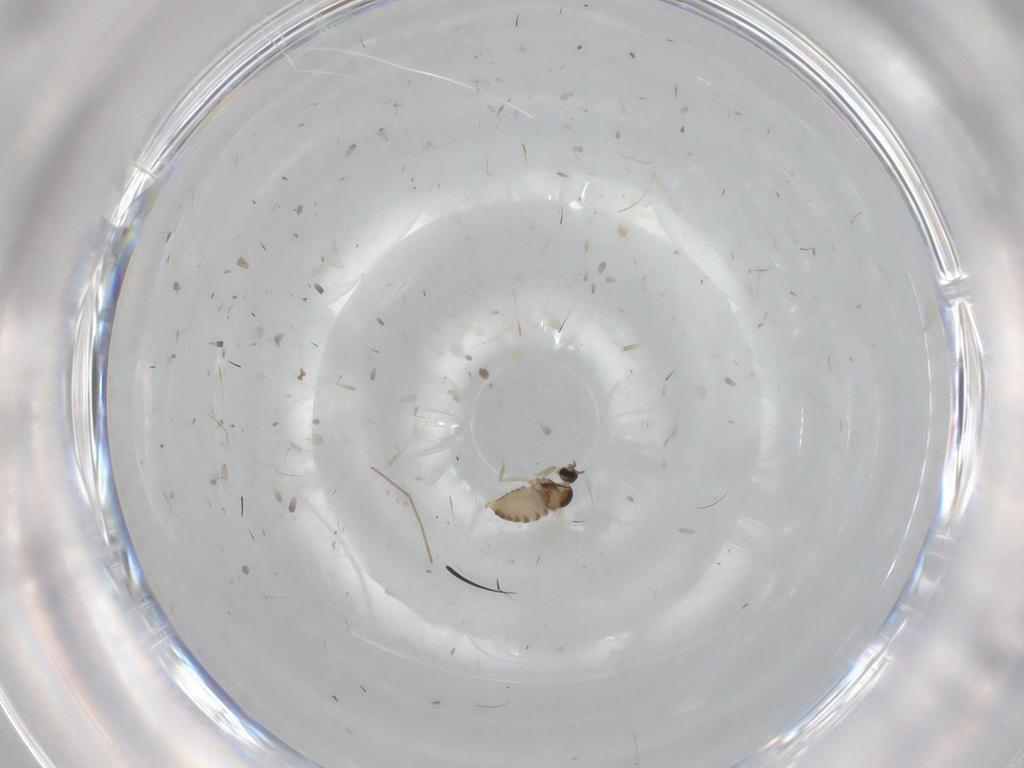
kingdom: Animalia
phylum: Arthropoda
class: Insecta
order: Diptera
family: Cecidomyiidae
